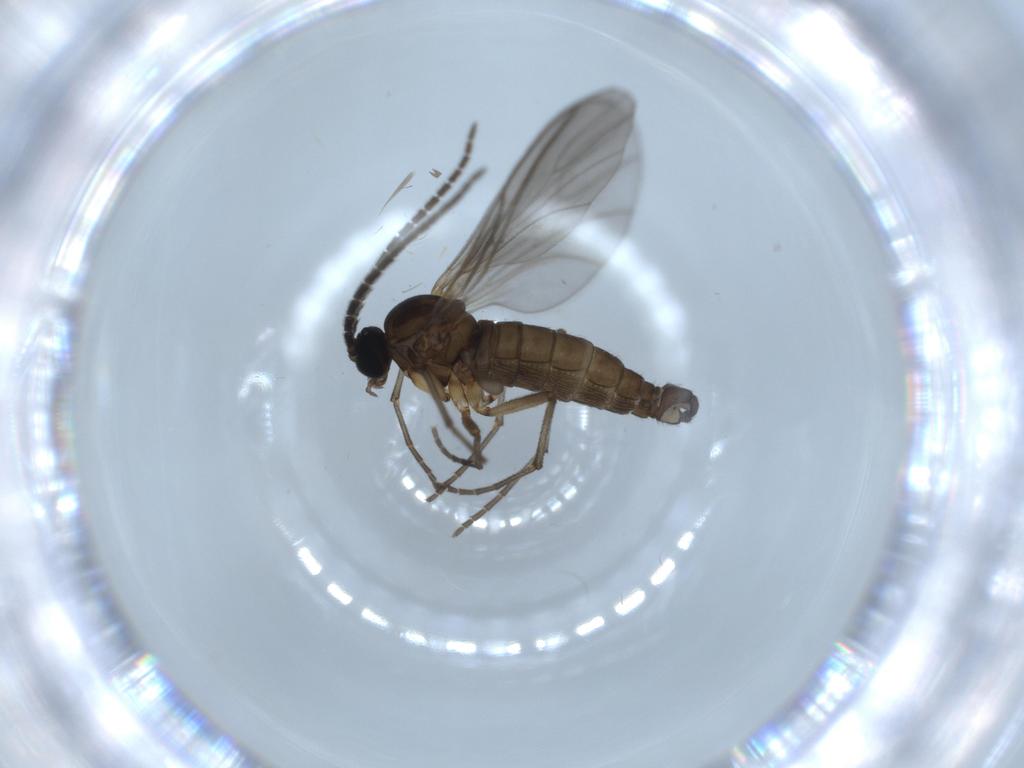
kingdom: Animalia
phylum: Arthropoda
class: Insecta
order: Diptera
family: Sciaridae
